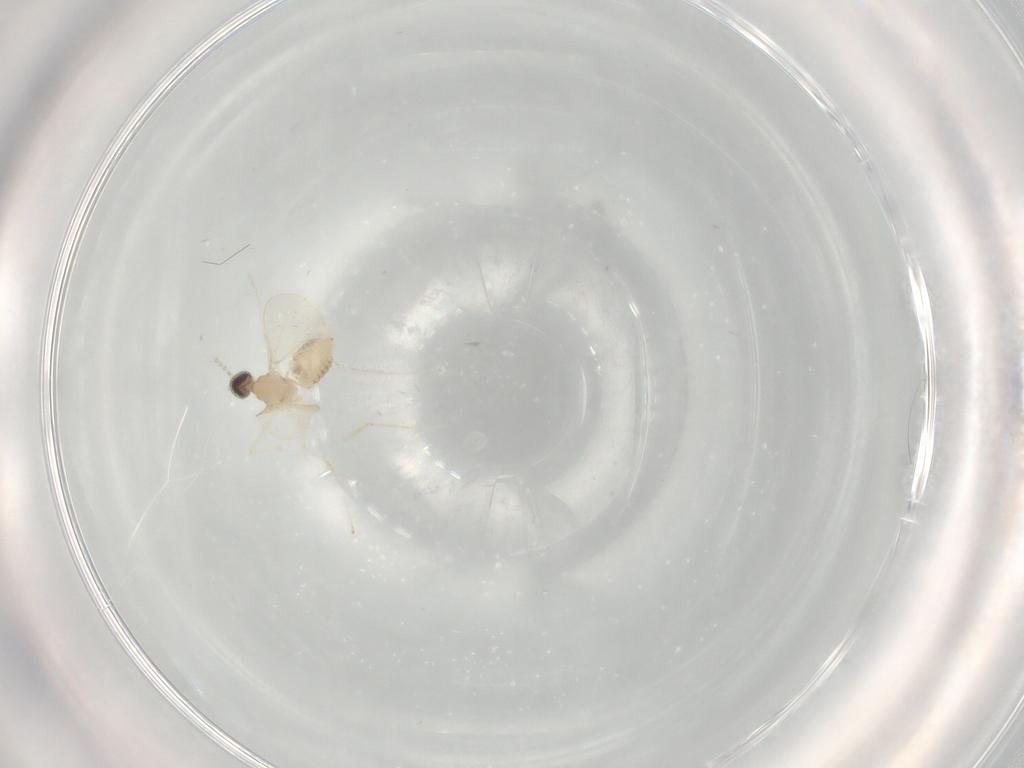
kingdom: Animalia
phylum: Arthropoda
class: Insecta
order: Diptera
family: Cecidomyiidae
